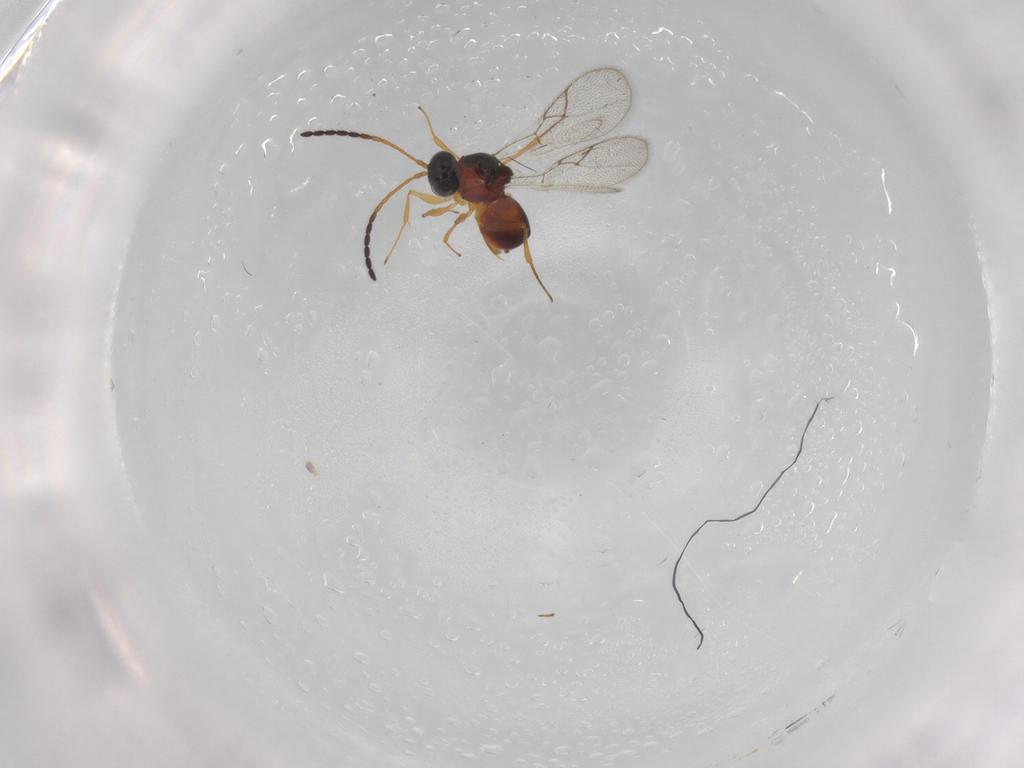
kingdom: Animalia
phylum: Arthropoda
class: Insecta
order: Hymenoptera
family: Figitidae
